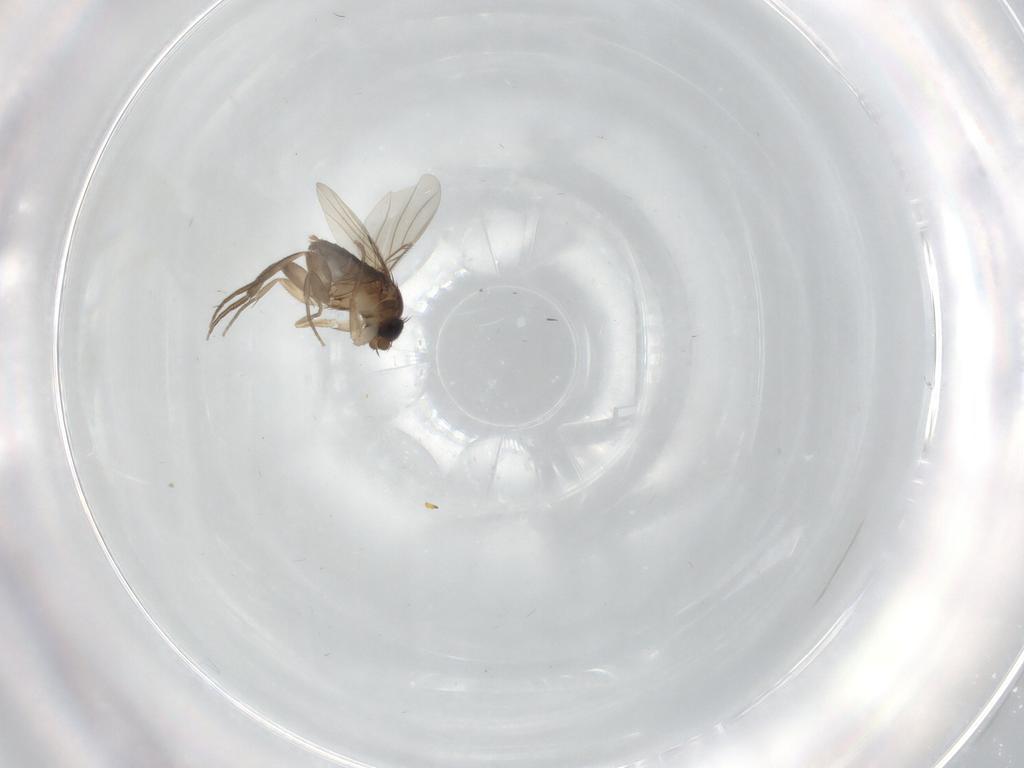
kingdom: Animalia
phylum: Arthropoda
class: Insecta
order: Diptera
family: Phoridae
